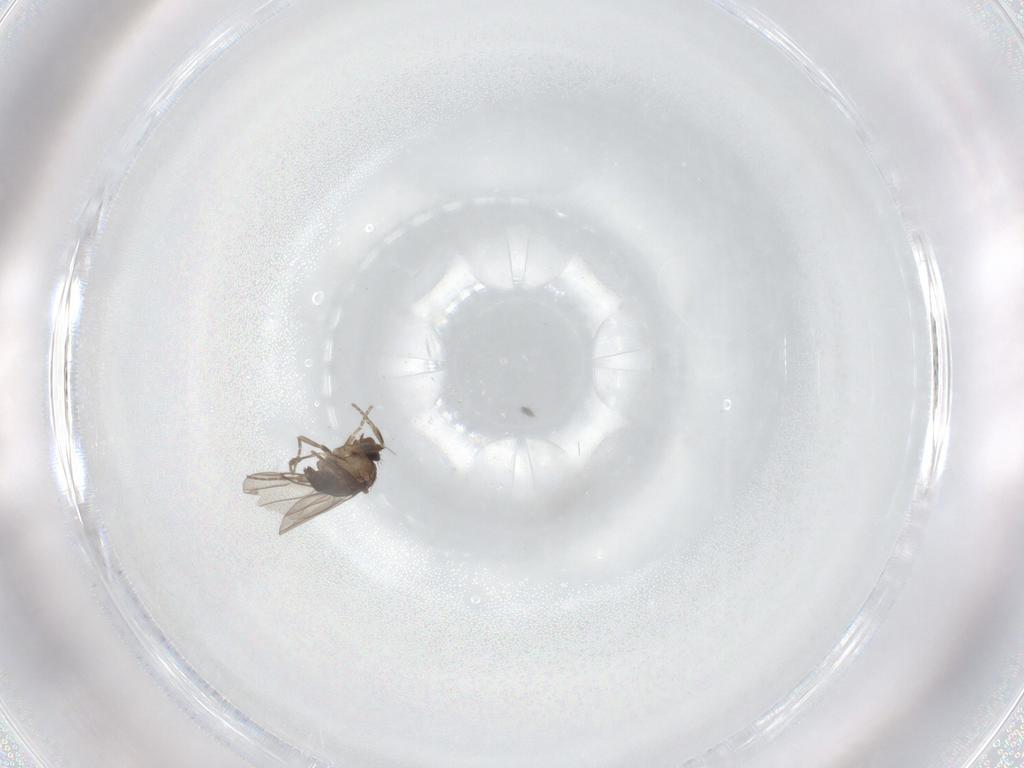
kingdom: Animalia
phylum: Arthropoda
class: Insecta
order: Diptera
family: Phoridae
